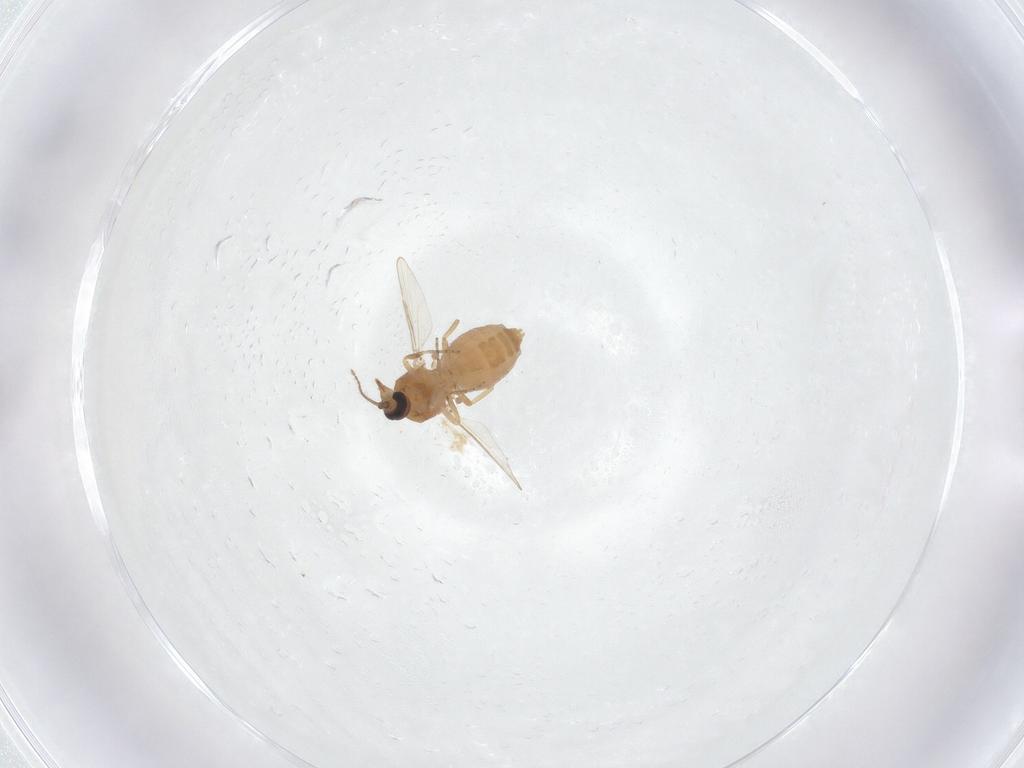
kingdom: Animalia
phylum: Arthropoda
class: Insecta
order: Diptera
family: Ceratopogonidae
